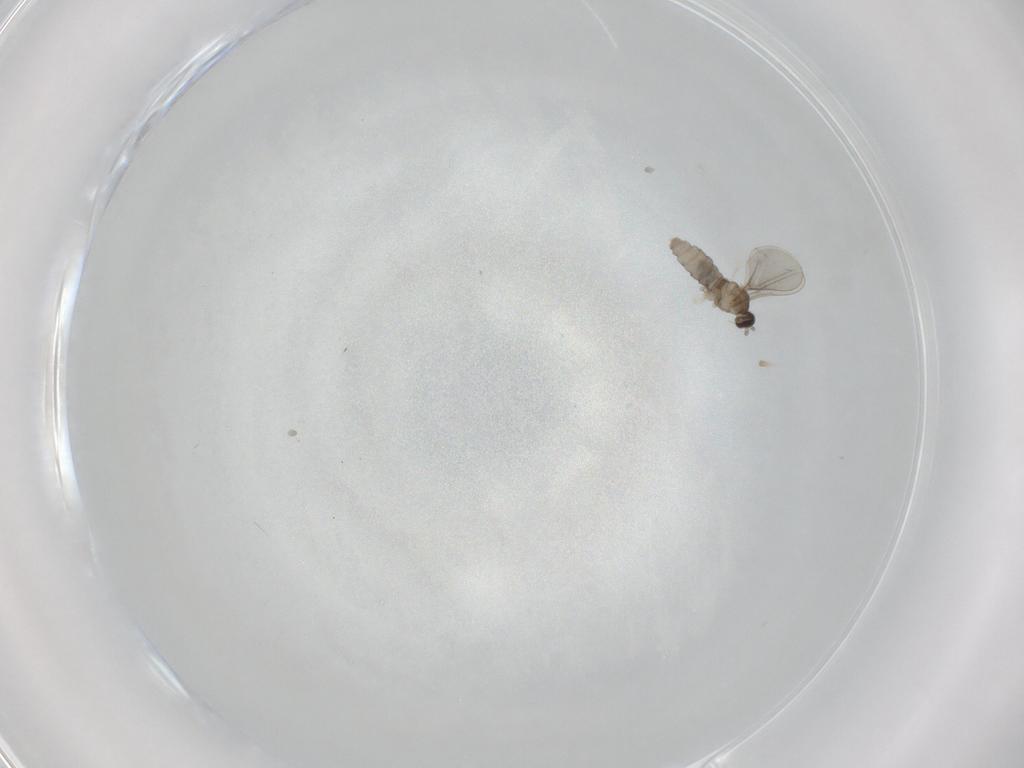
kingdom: Animalia
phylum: Arthropoda
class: Insecta
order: Diptera
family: Cecidomyiidae
